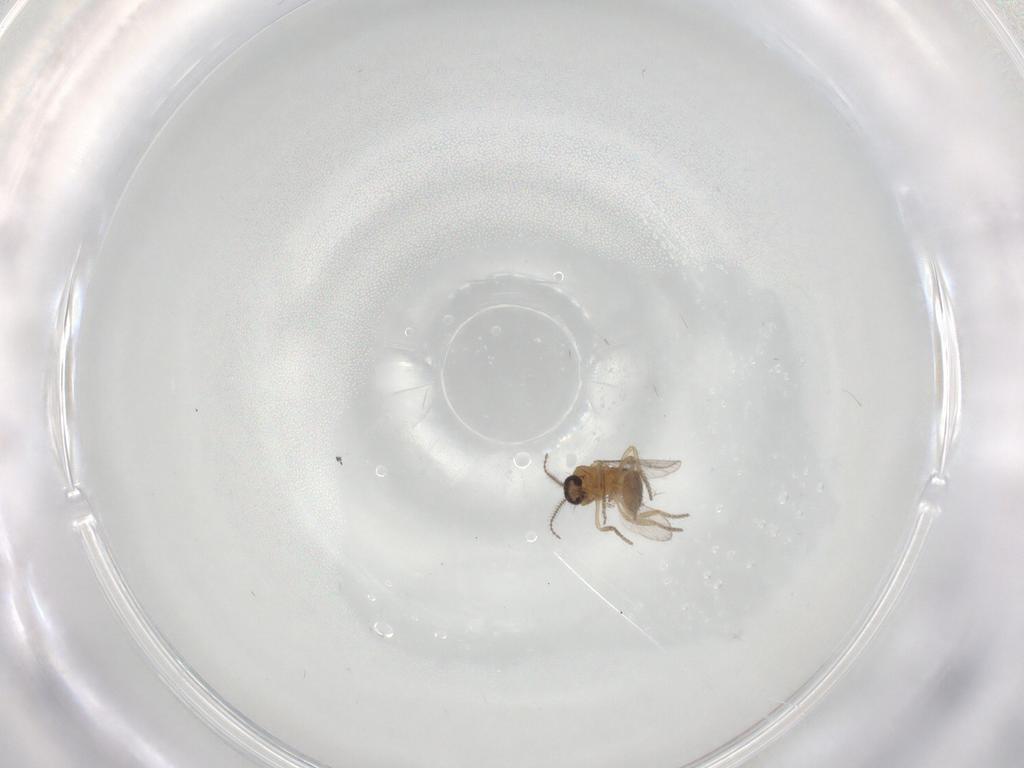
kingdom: Animalia
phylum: Arthropoda
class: Insecta
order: Diptera
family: Ceratopogonidae
